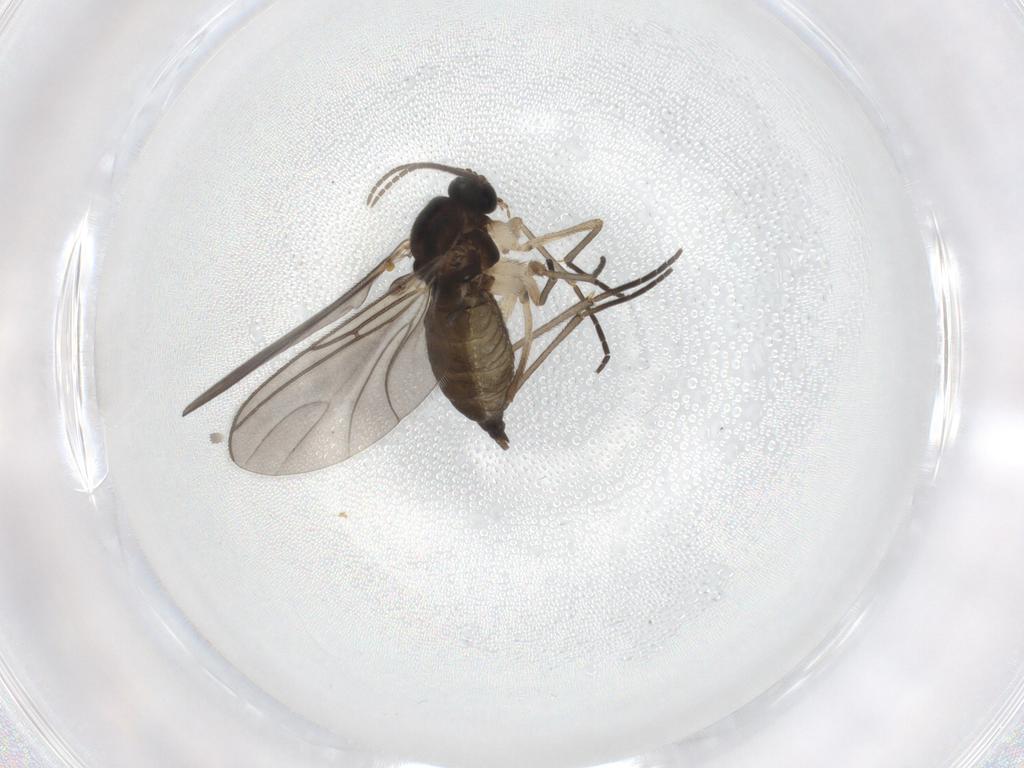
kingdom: Animalia
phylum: Arthropoda
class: Insecta
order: Diptera
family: Sciaridae
